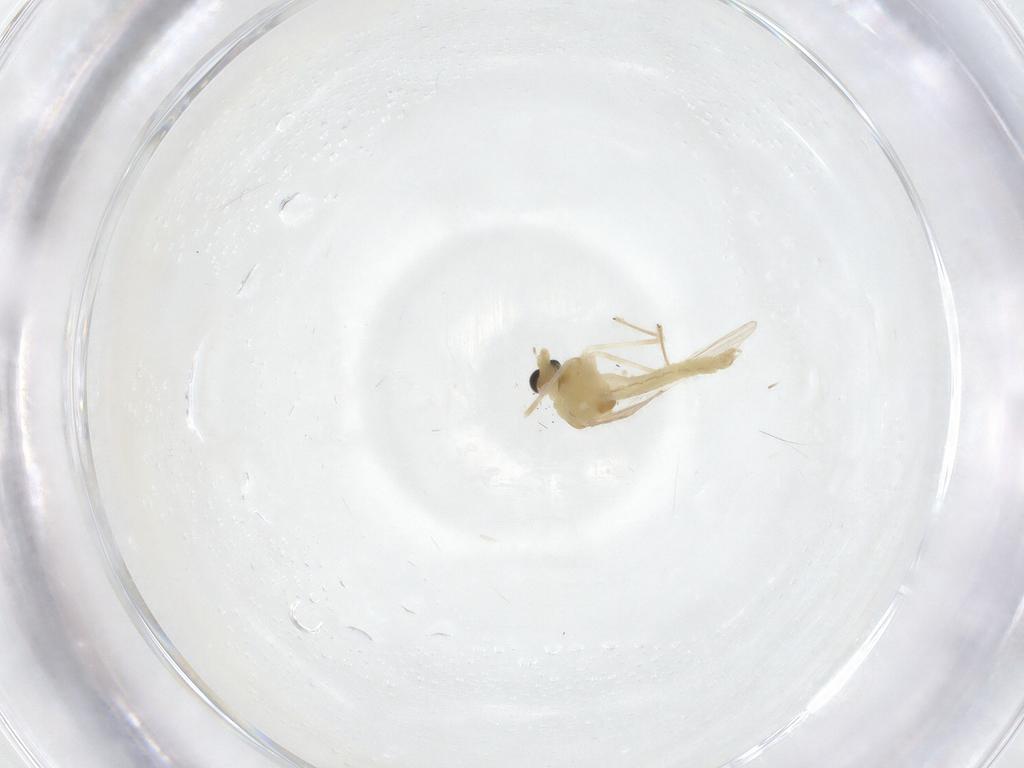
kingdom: Animalia
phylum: Arthropoda
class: Insecta
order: Diptera
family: Chironomidae
